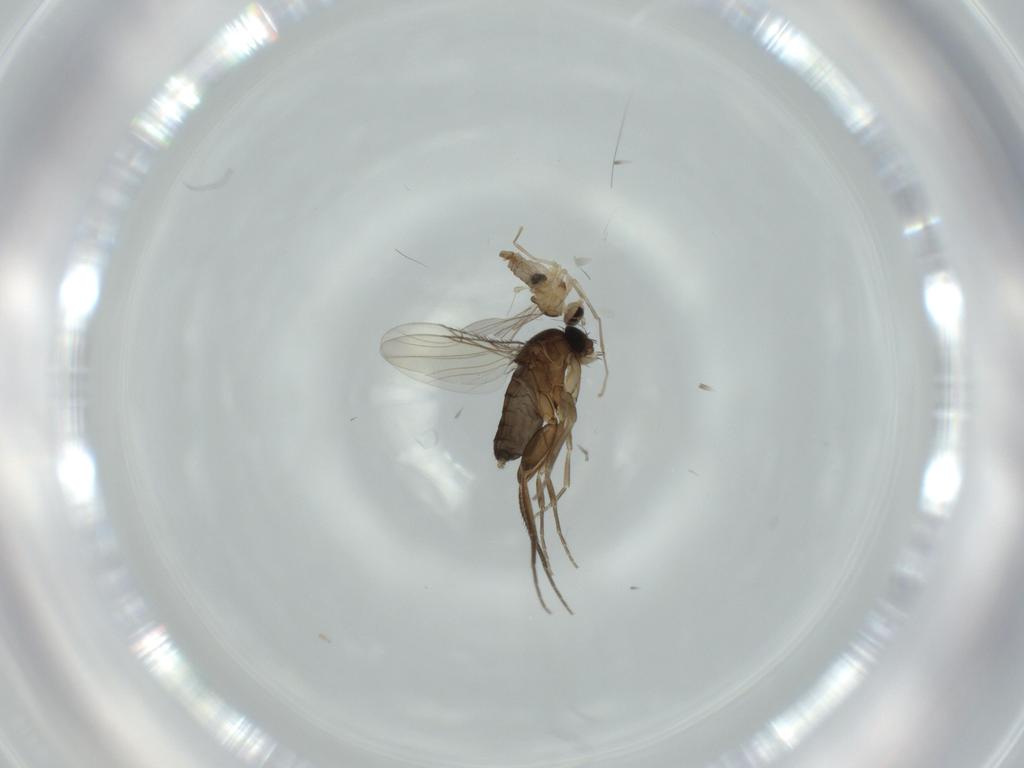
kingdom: Animalia
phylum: Arthropoda
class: Insecta
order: Diptera
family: Phoridae
